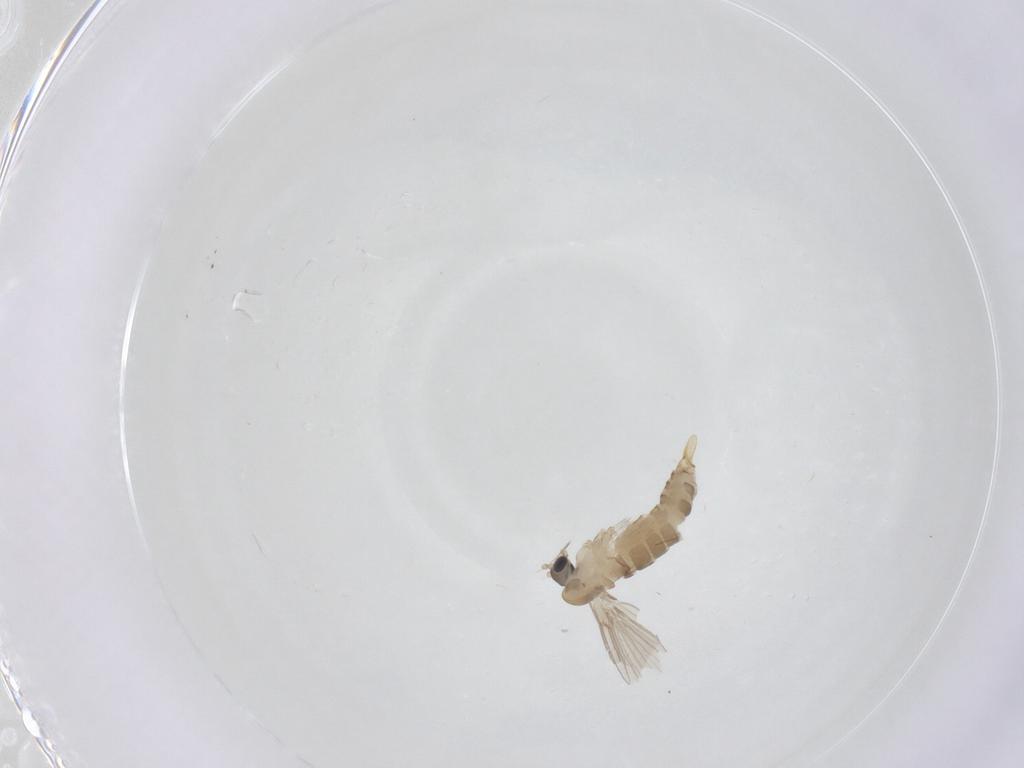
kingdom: Animalia
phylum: Arthropoda
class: Insecta
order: Diptera
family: Psychodidae
